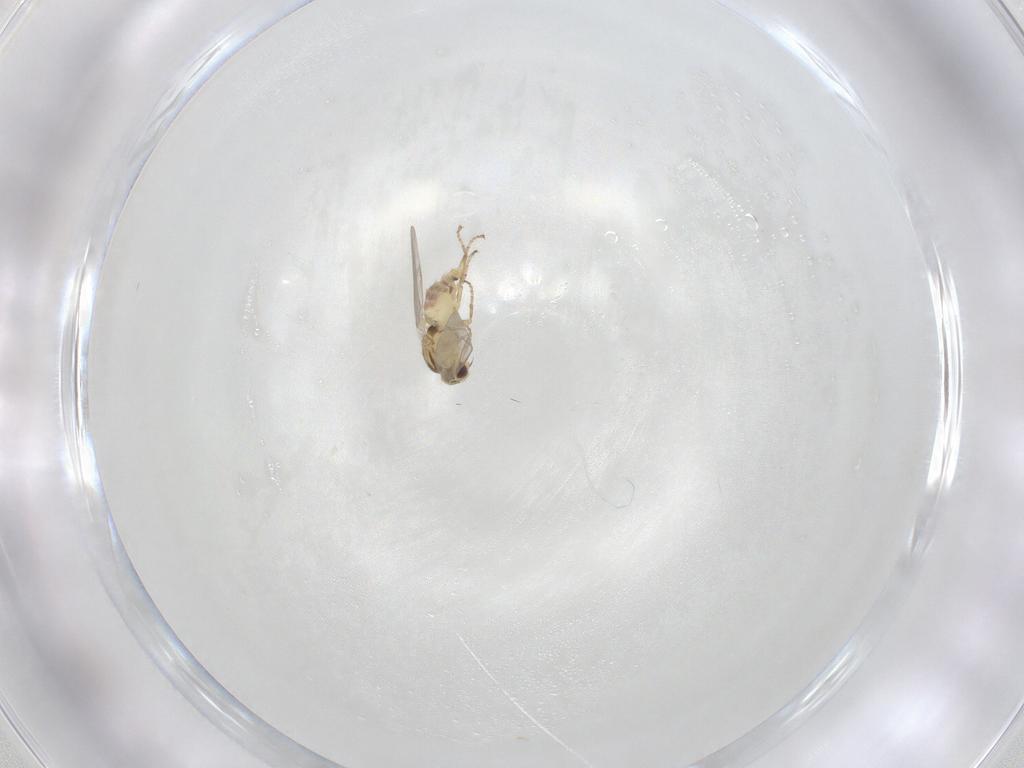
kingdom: Animalia
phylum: Arthropoda
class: Insecta
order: Diptera
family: Agromyzidae
